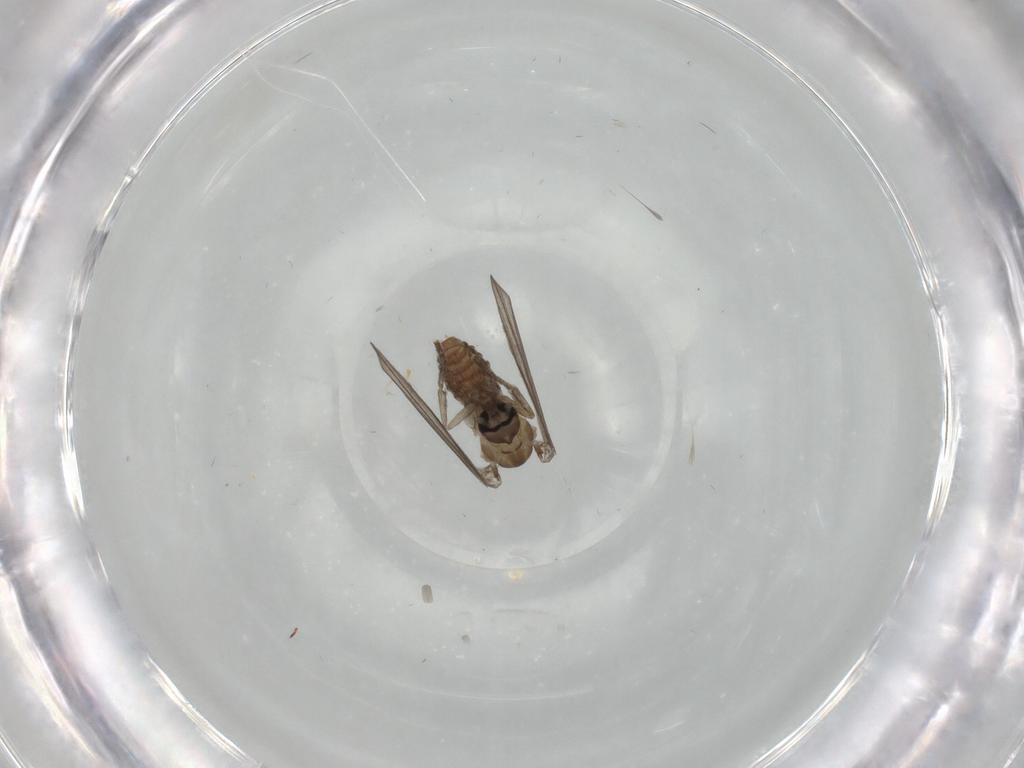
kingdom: Animalia
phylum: Arthropoda
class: Insecta
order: Diptera
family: Psychodidae
